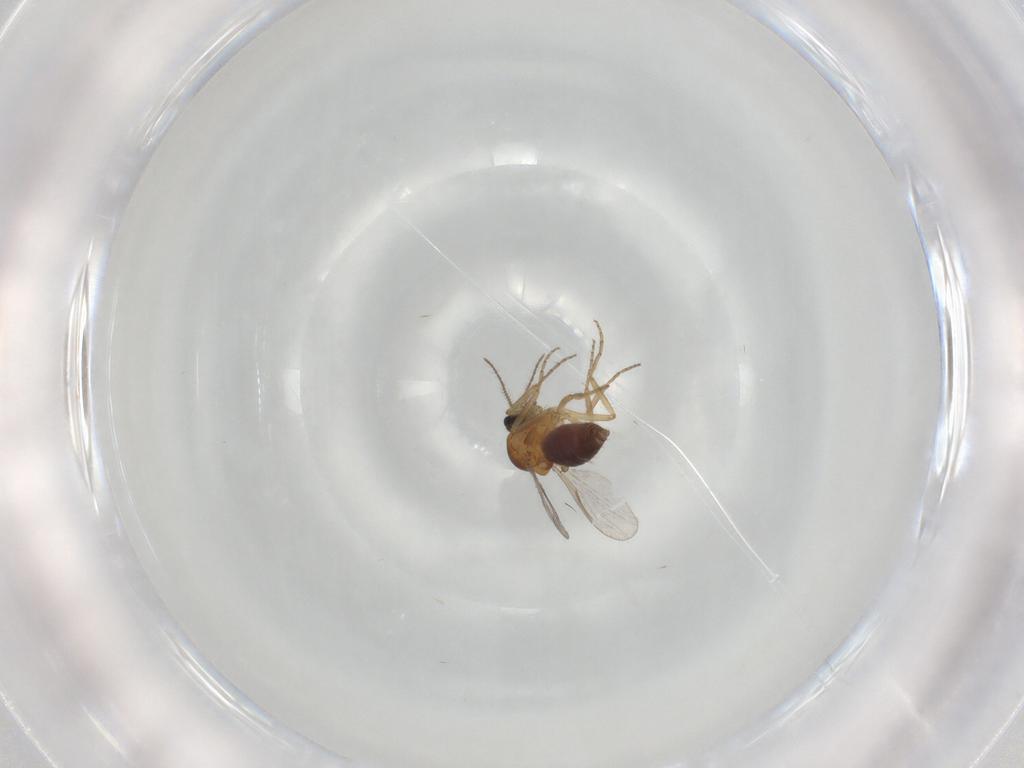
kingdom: Animalia
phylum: Arthropoda
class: Insecta
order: Diptera
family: Ceratopogonidae
